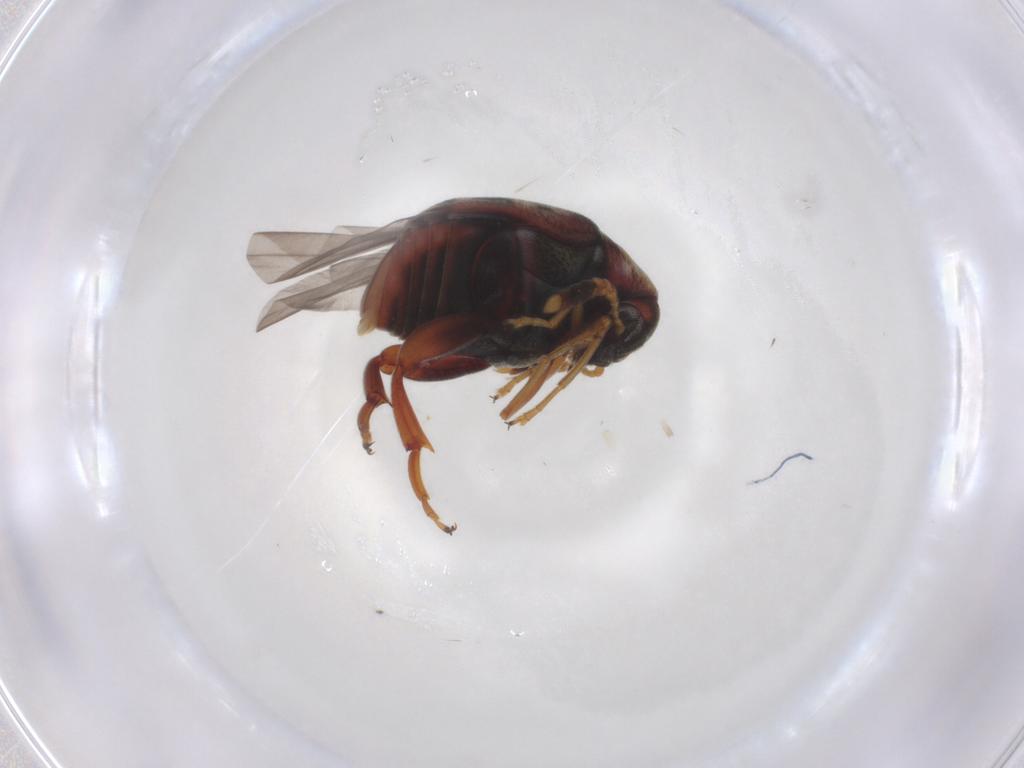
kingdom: Animalia
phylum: Arthropoda
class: Insecta
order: Coleoptera
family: Chrysomelidae
